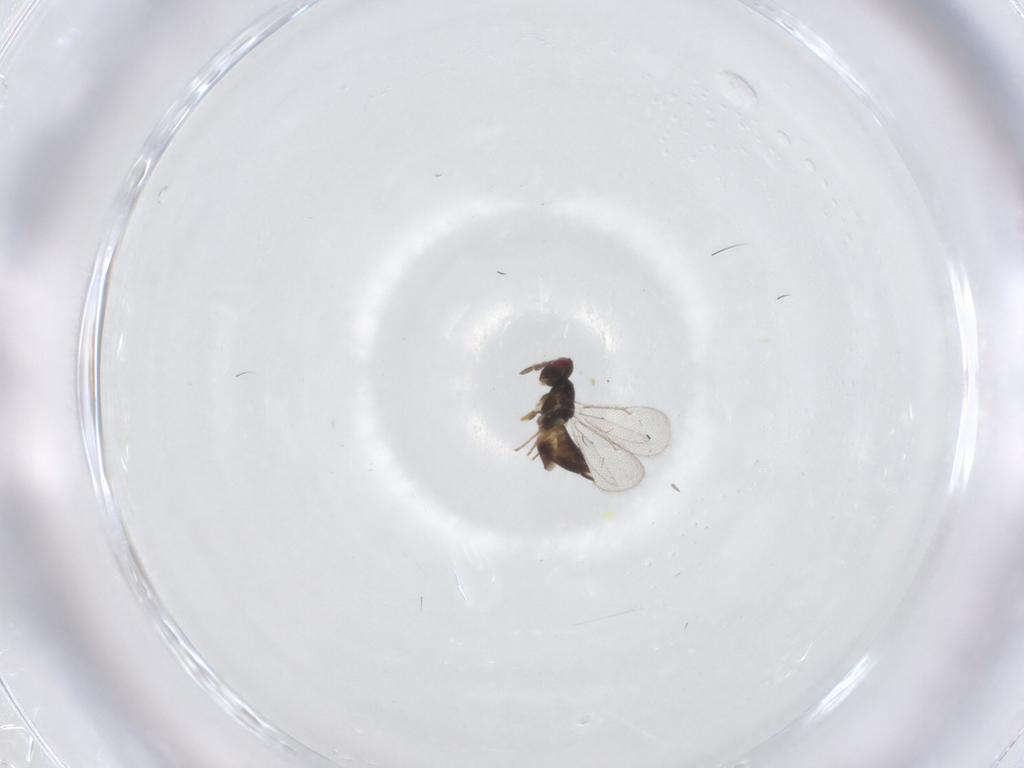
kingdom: Animalia
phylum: Arthropoda
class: Insecta
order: Hymenoptera
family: Eulophidae
